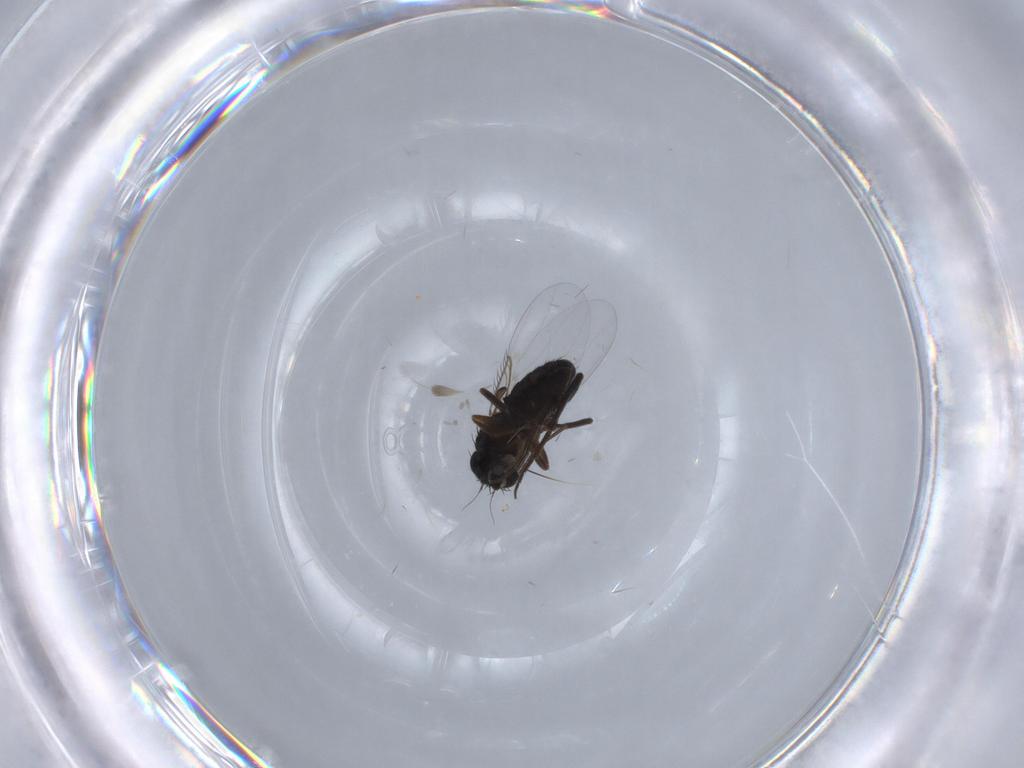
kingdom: Animalia
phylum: Arthropoda
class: Insecta
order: Diptera
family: Phoridae
